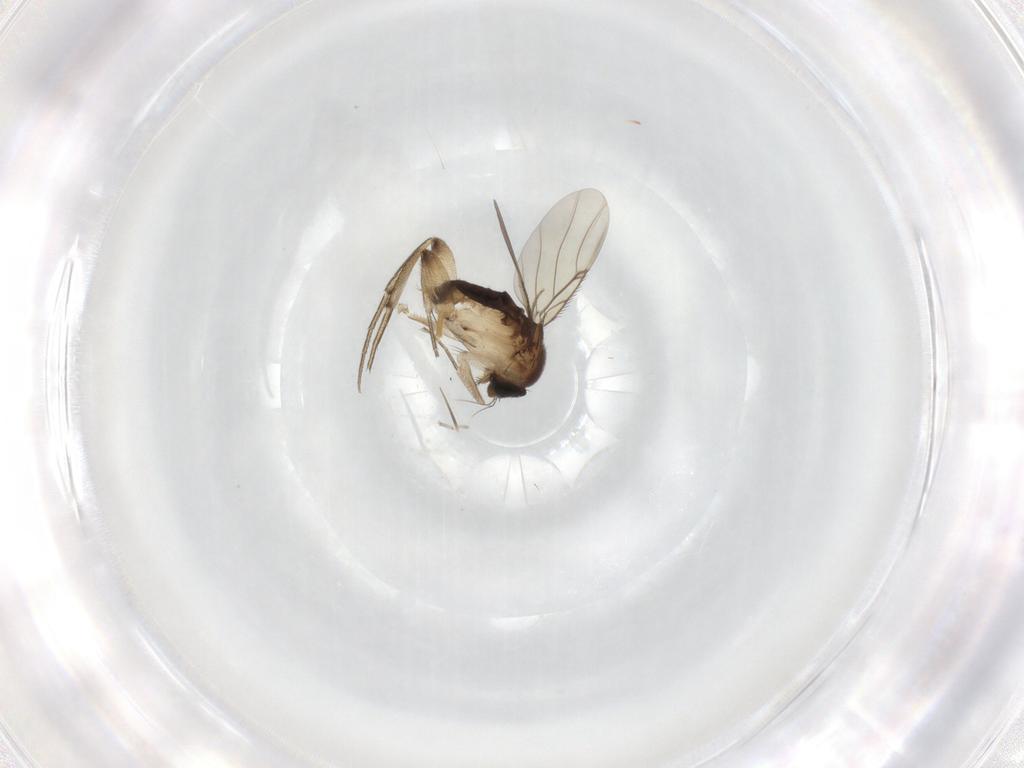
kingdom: Animalia
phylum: Arthropoda
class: Insecta
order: Diptera
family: Phoridae
